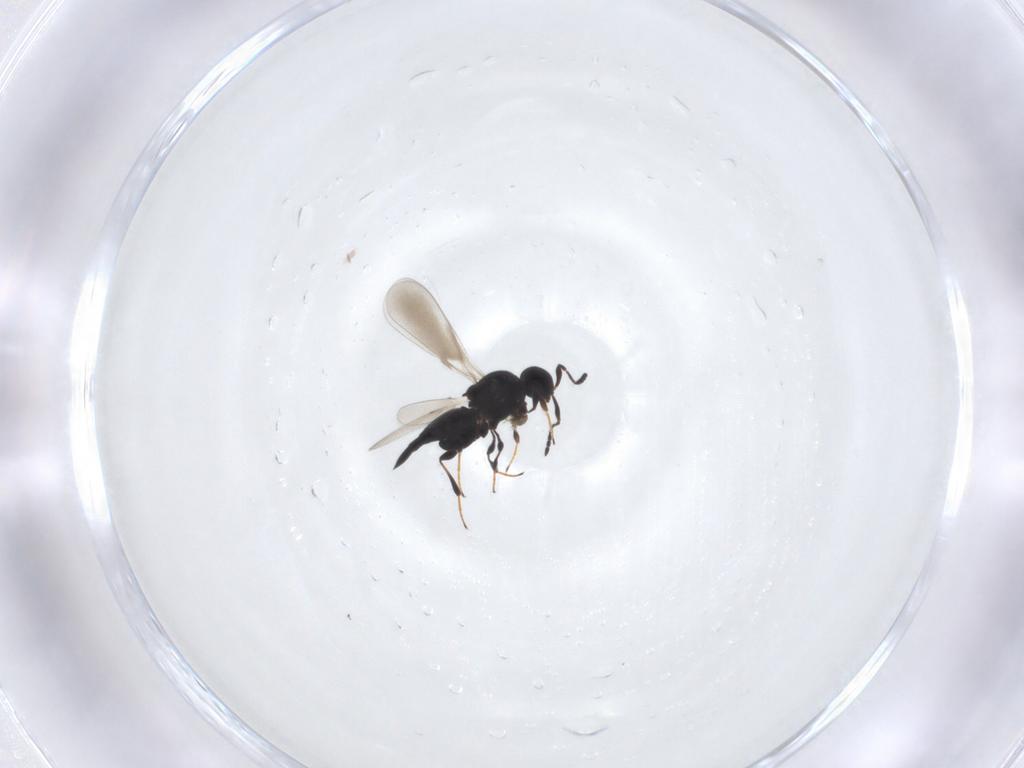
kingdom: Animalia
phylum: Arthropoda
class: Insecta
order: Hymenoptera
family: Platygastridae
